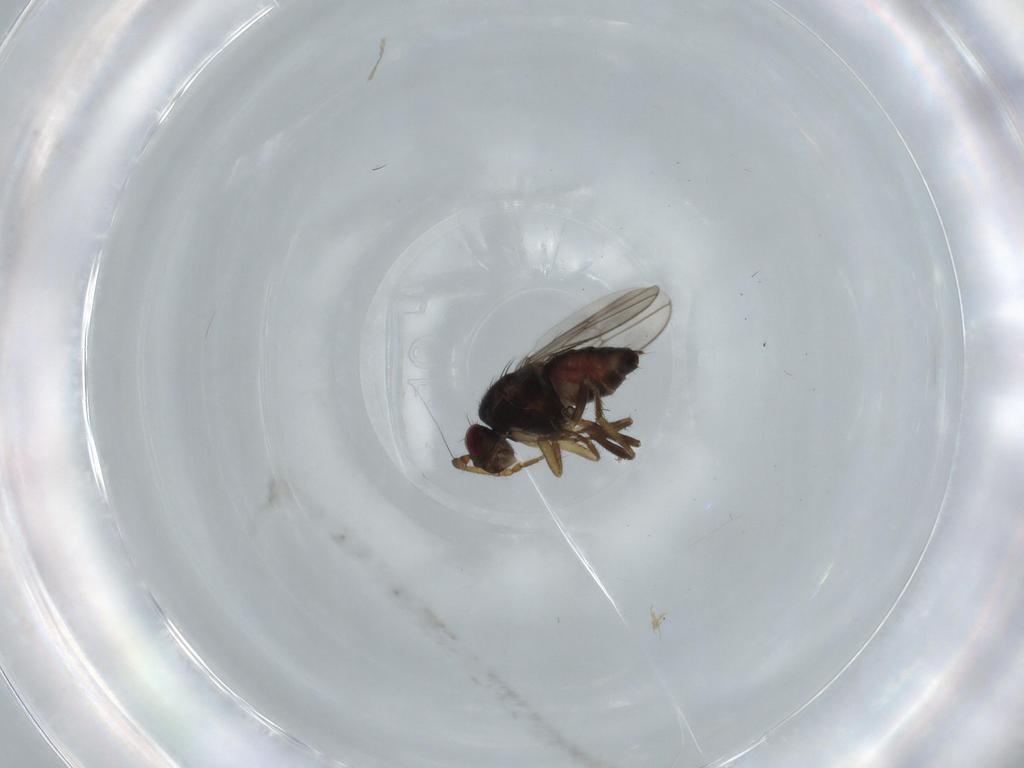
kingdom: Animalia
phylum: Arthropoda
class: Insecta
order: Diptera
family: Sphaeroceridae
